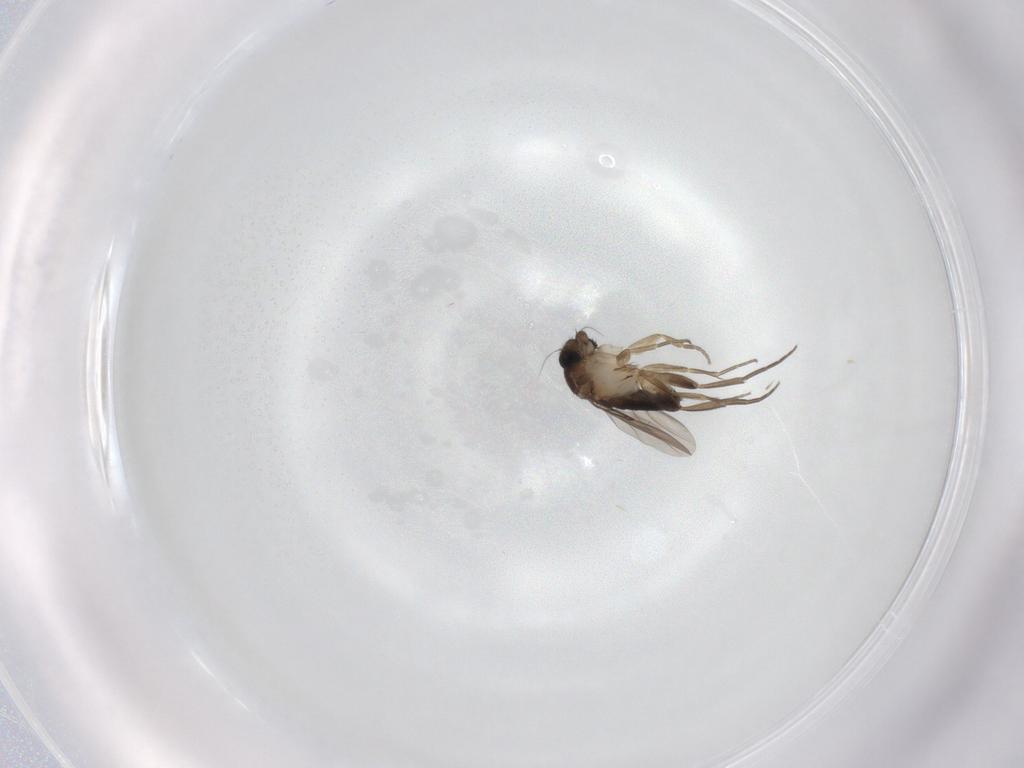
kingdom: Animalia
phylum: Arthropoda
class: Insecta
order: Diptera
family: Phoridae
